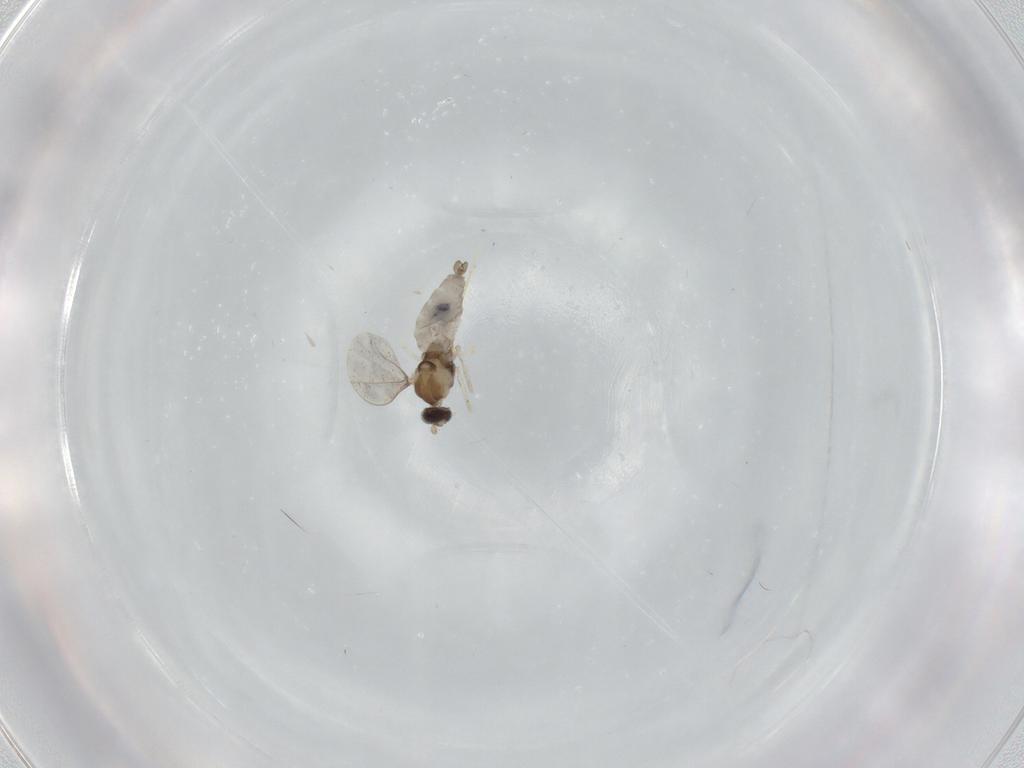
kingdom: Animalia
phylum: Arthropoda
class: Insecta
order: Diptera
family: Cecidomyiidae
